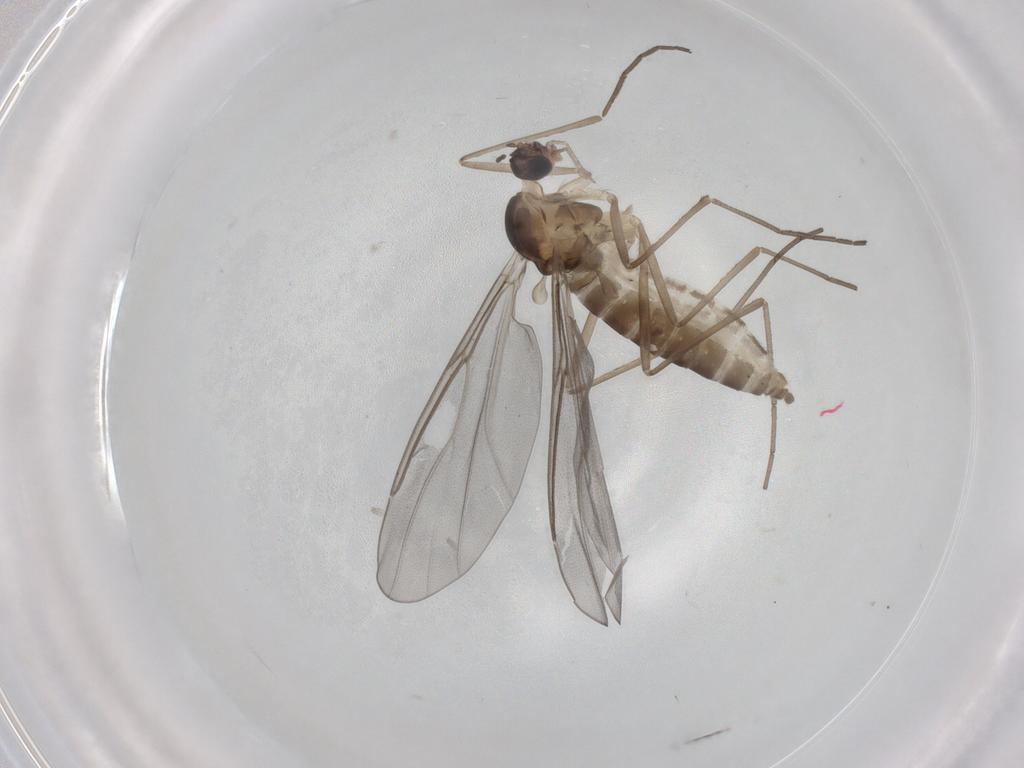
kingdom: Animalia
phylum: Arthropoda
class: Insecta
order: Diptera
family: Cecidomyiidae
